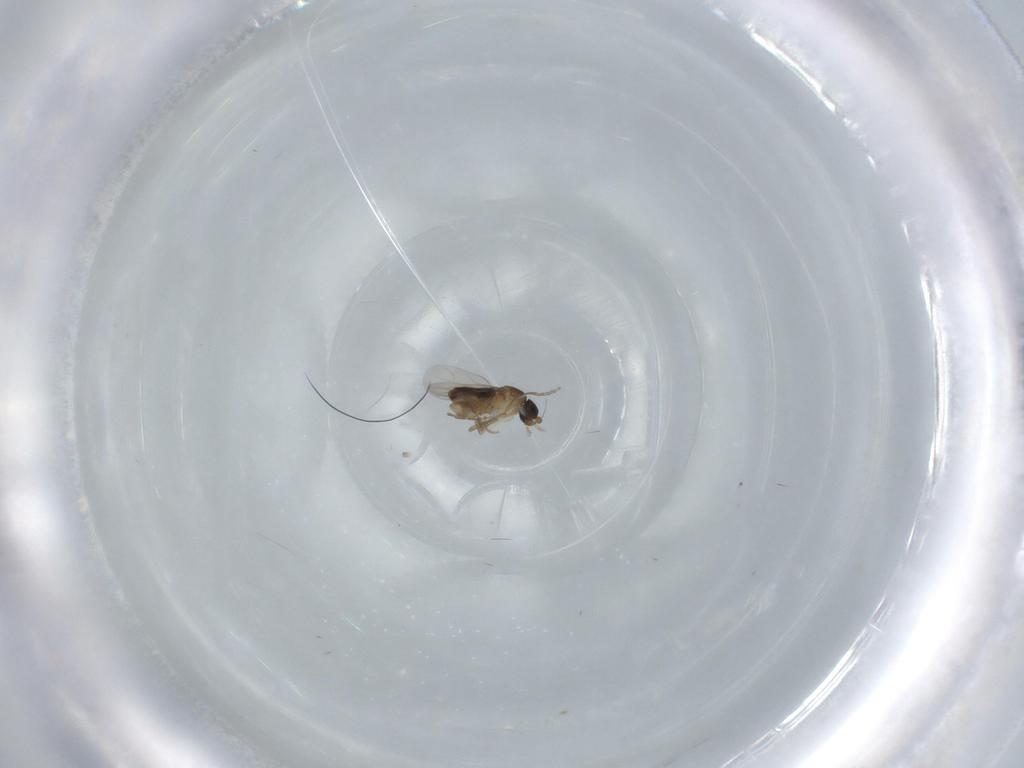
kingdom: Animalia
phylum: Arthropoda
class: Insecta
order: Diptera
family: Phoridae
